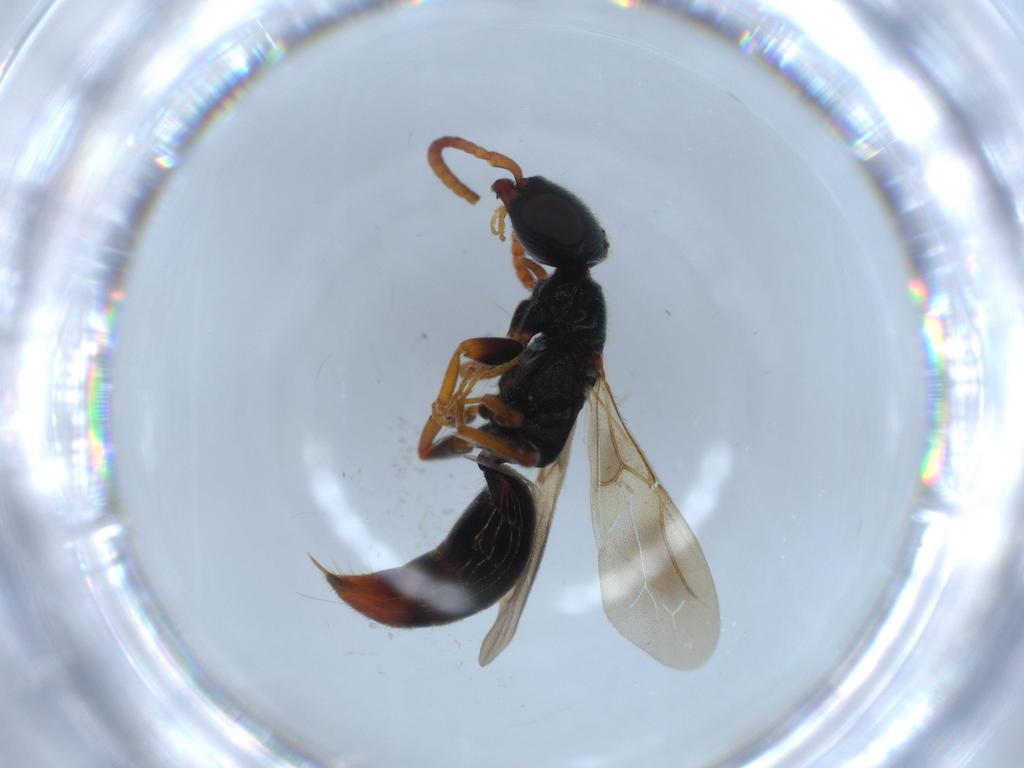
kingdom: Animalia
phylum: Arthropoda
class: Insecta
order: Hymenoptera
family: Bethylidae
